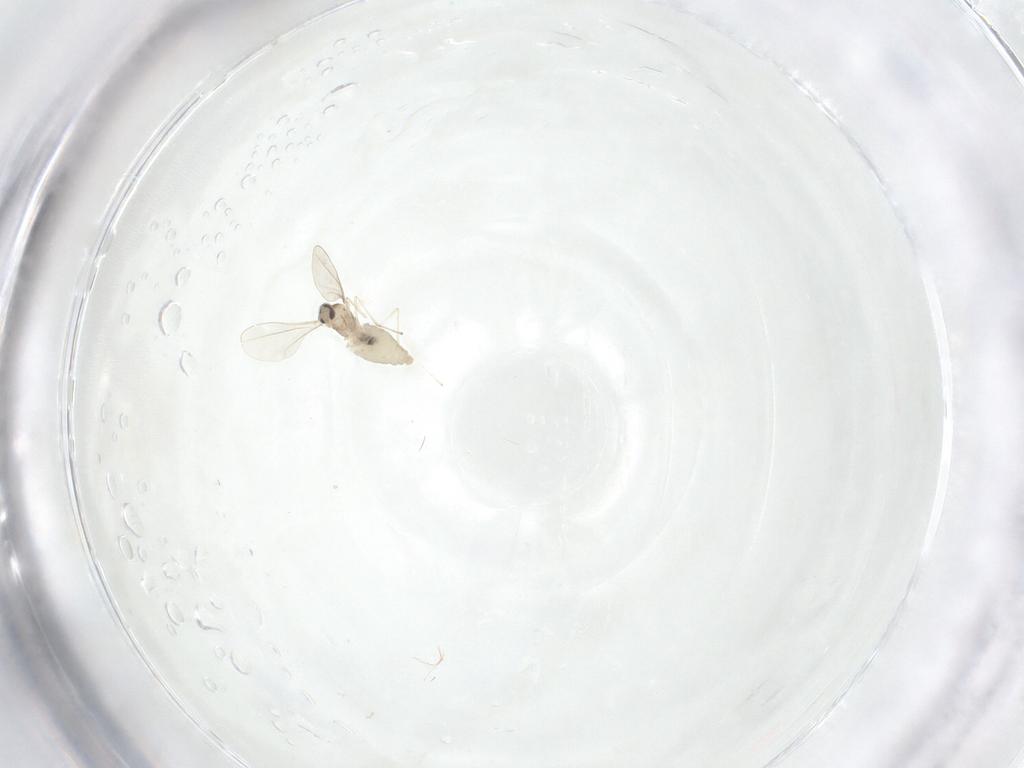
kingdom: Animalia
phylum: Arthropoda
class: Insecta
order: Diptera
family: Cecidomyiidae
